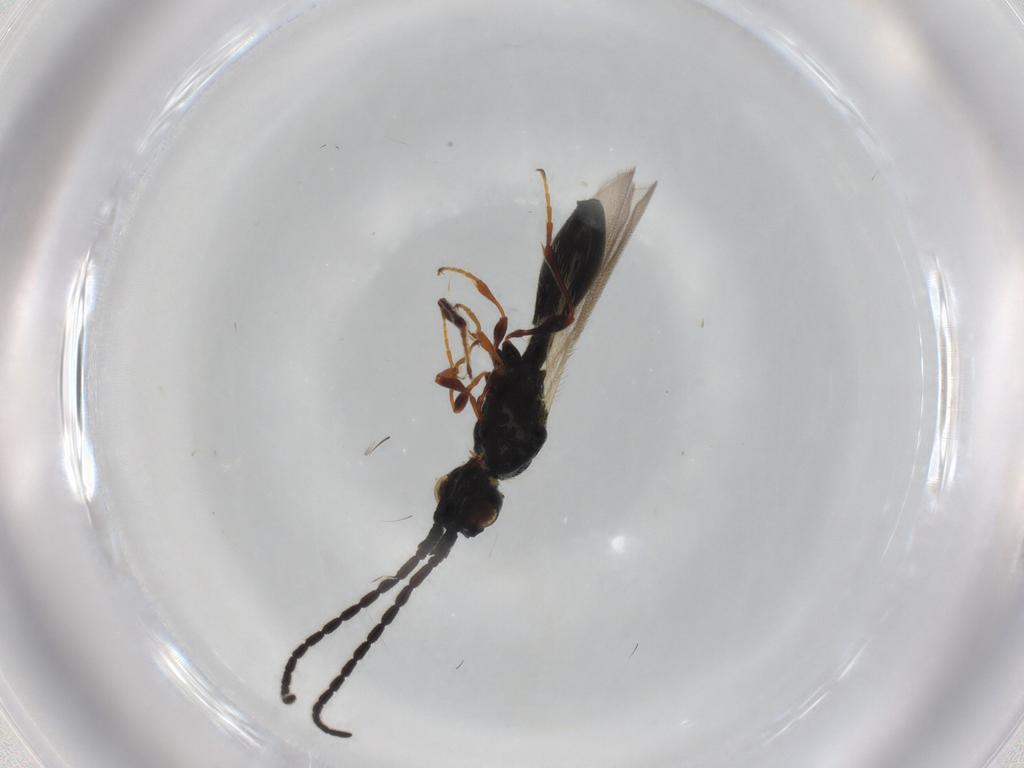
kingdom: Animalia
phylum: Arthropoda
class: Insecta
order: Hymenoptera
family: Diapriidae
